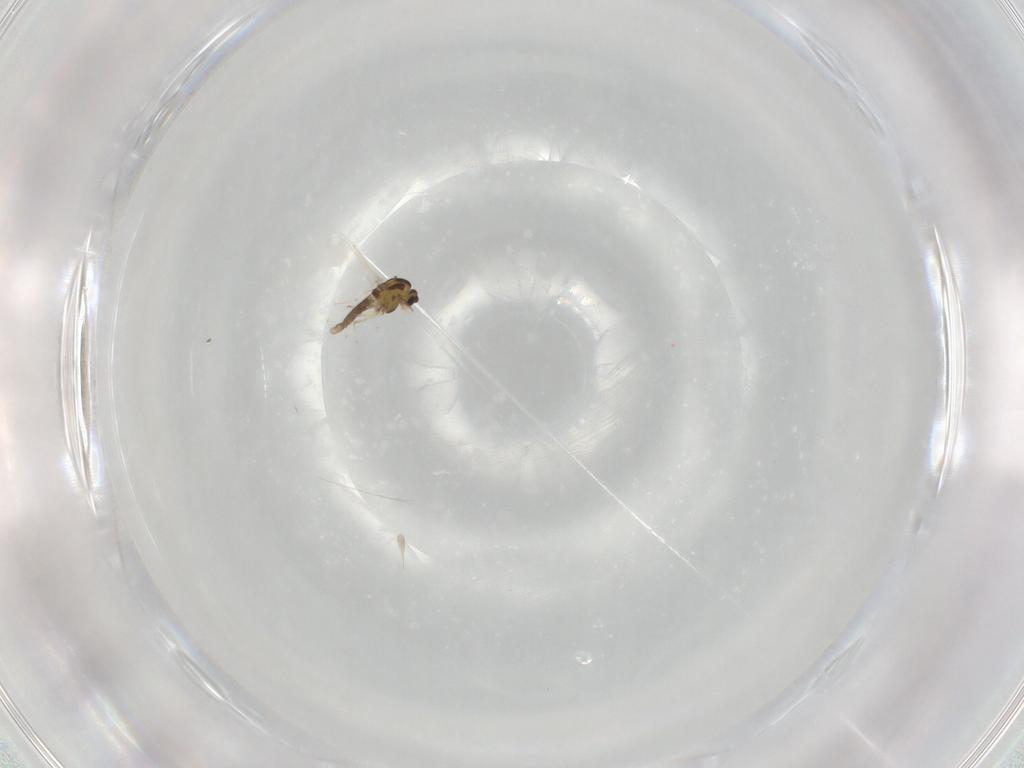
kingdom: Animalia
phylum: Arthropoda
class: Insecta
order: Diptera
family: Chironomidae
